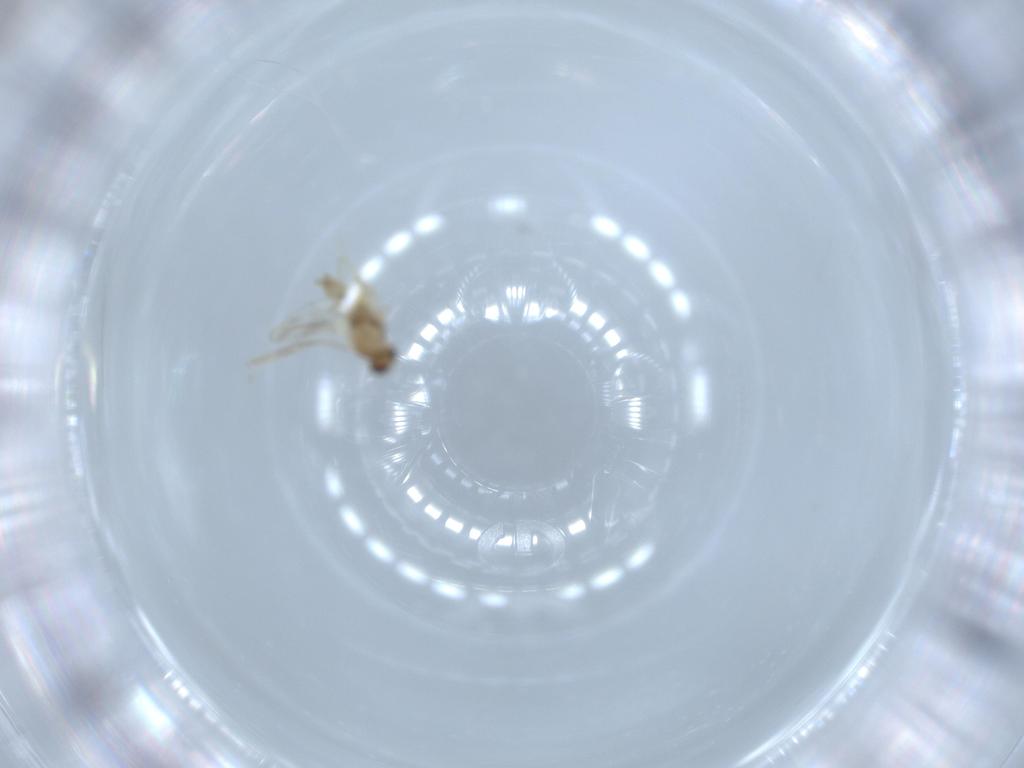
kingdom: Animalia
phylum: Arthropoda
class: Insecta
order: Diptera
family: Cecidomyiidae
